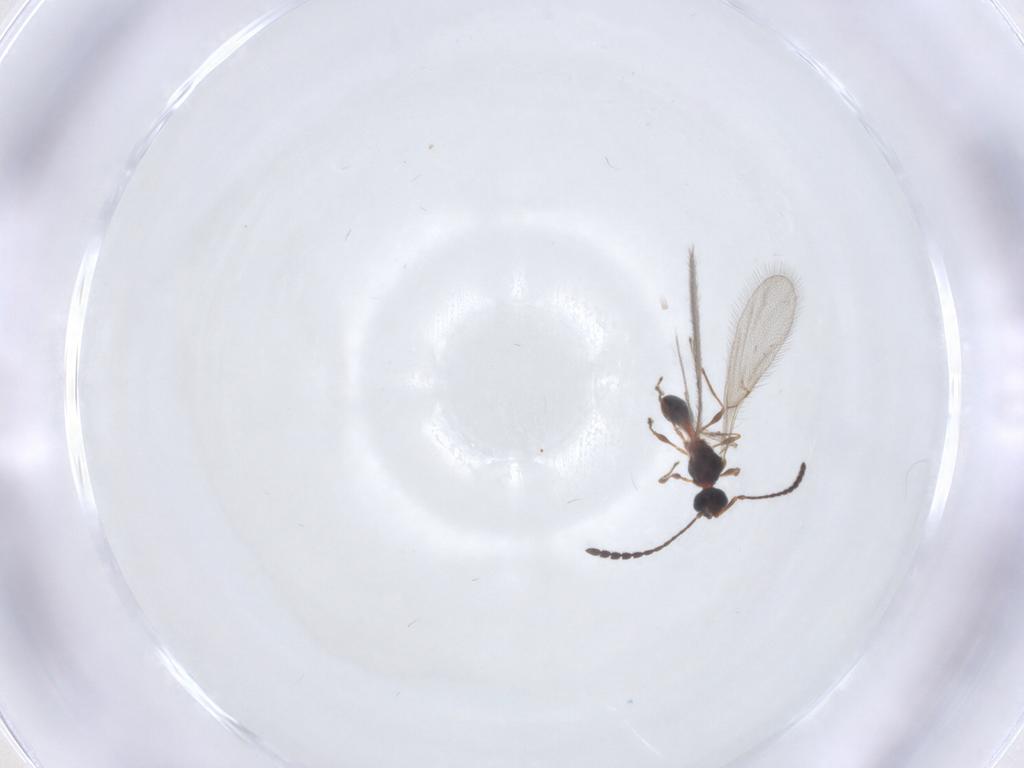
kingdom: Animalia
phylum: Arthropoda
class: Insecta
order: Hymenoptera
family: Diapriidae
